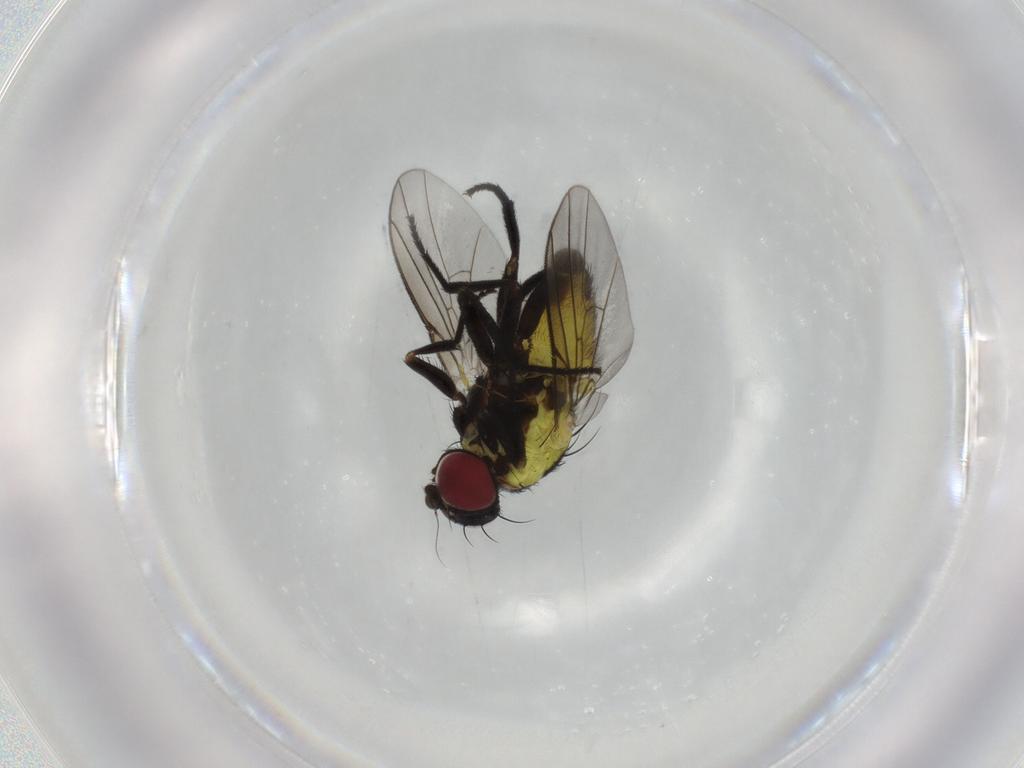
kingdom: Animalia
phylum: Arthropoda
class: Insecta
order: Diptera
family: Agromyzidae
